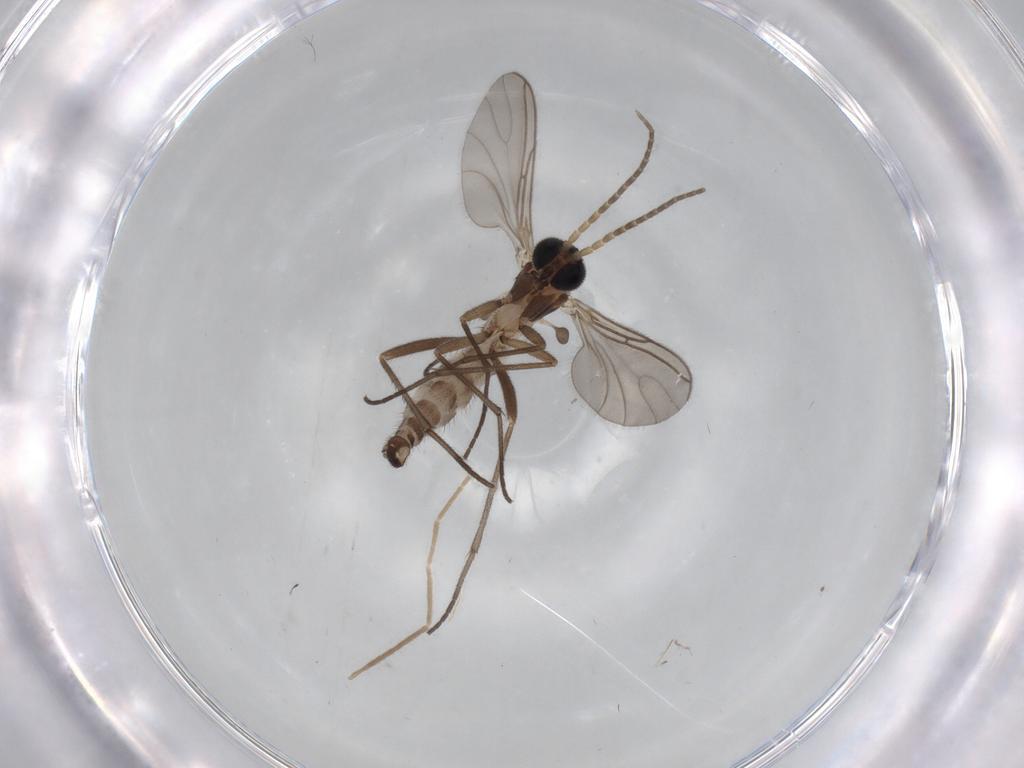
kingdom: Animalia
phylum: Arthropoda
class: Insecta
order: Diptera
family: Sciaridae
